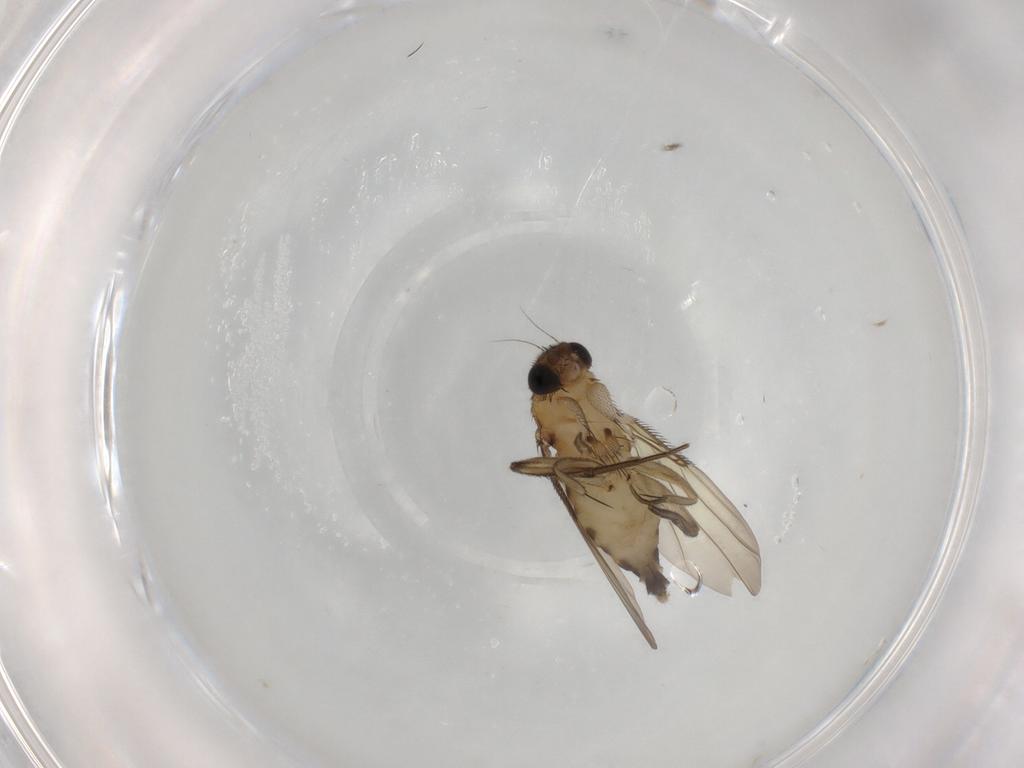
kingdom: Animalia
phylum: Arthropoda
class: Insecta
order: Diptera
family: Phoridae
